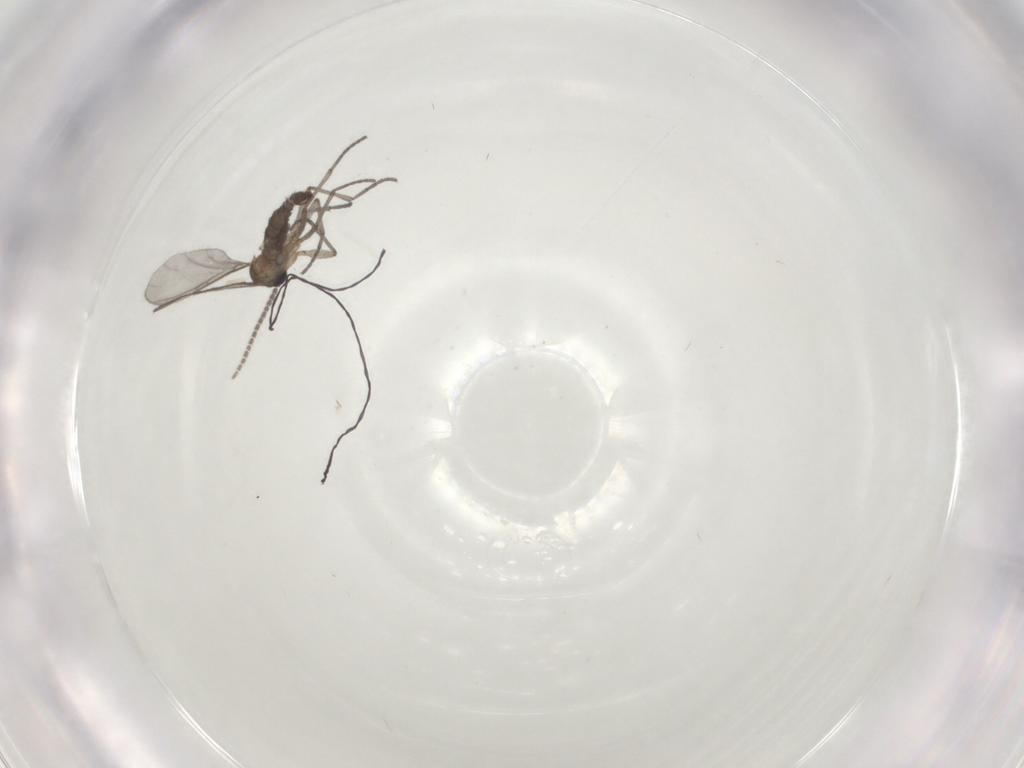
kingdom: Animalia
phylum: Arthropoda
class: Insecta
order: Diptera
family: Sciaridae
